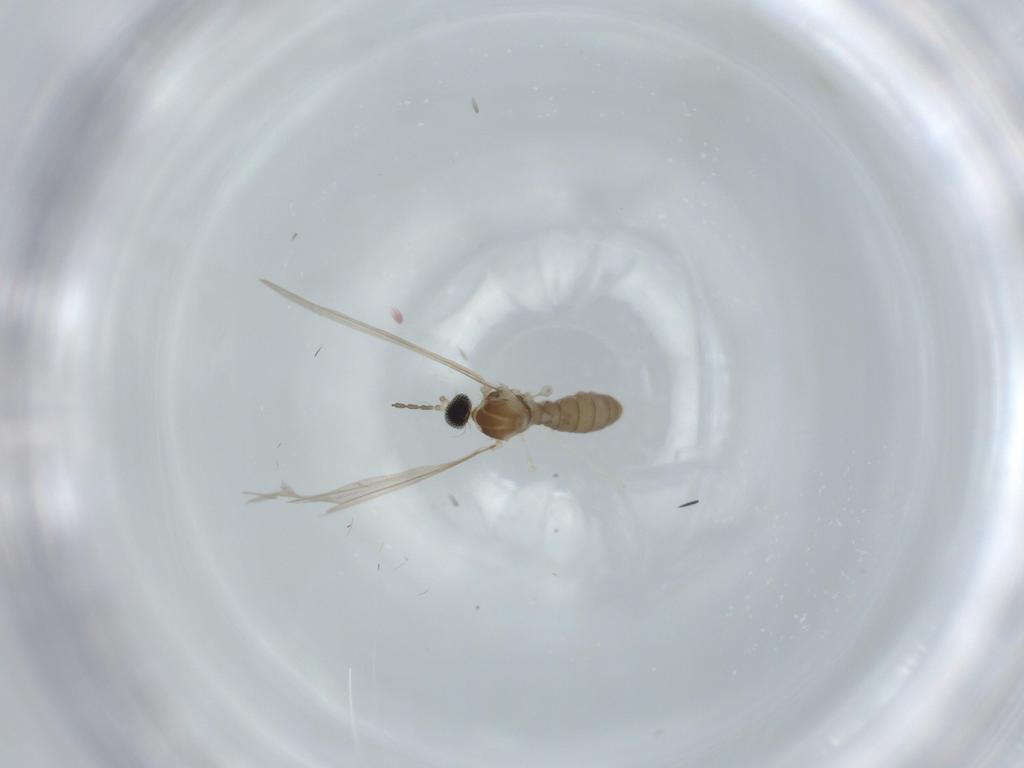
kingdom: Animalia
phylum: Arthropoda
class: Insecta
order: Diptera
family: Cecidomyiidae
